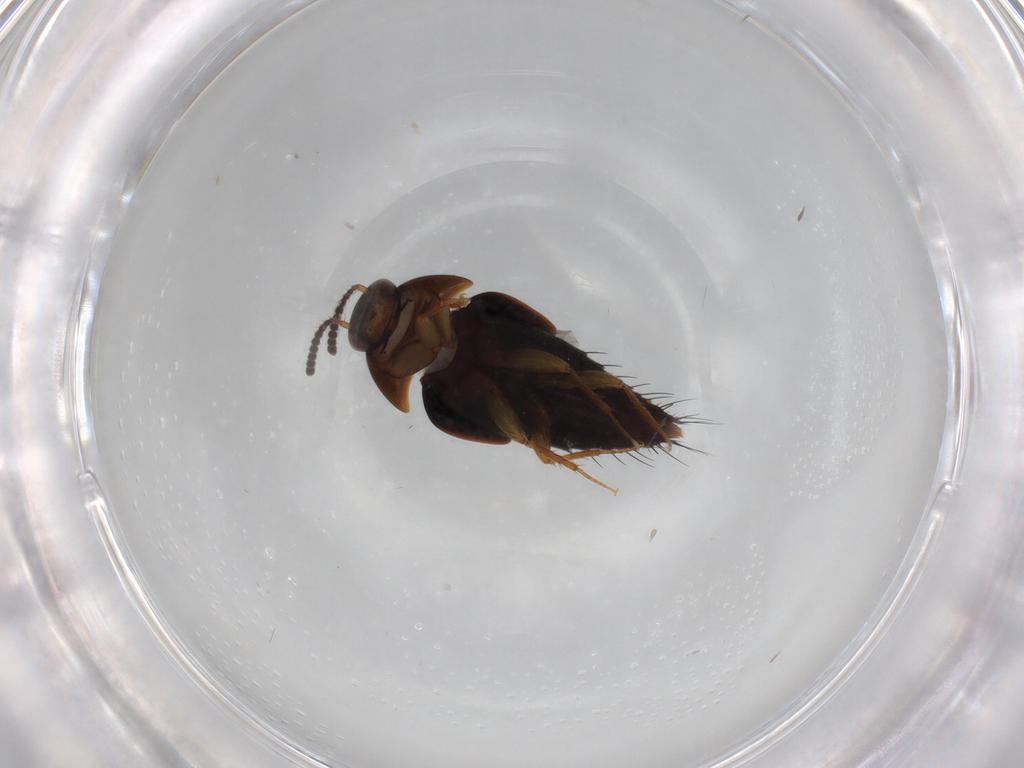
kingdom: Animalia
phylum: Arthropoda
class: Insecta
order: Coleoptera
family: Staphylinidae
